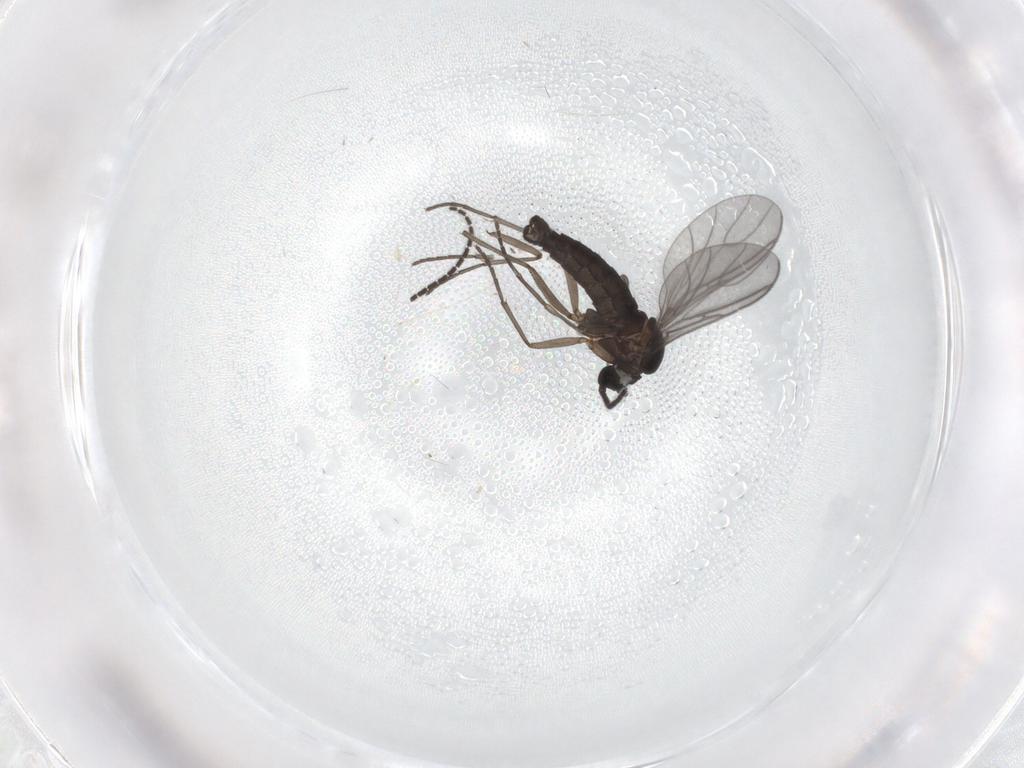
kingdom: Animalia
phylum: Arthropoda
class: Insecta
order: Diptera
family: Sciaridae
